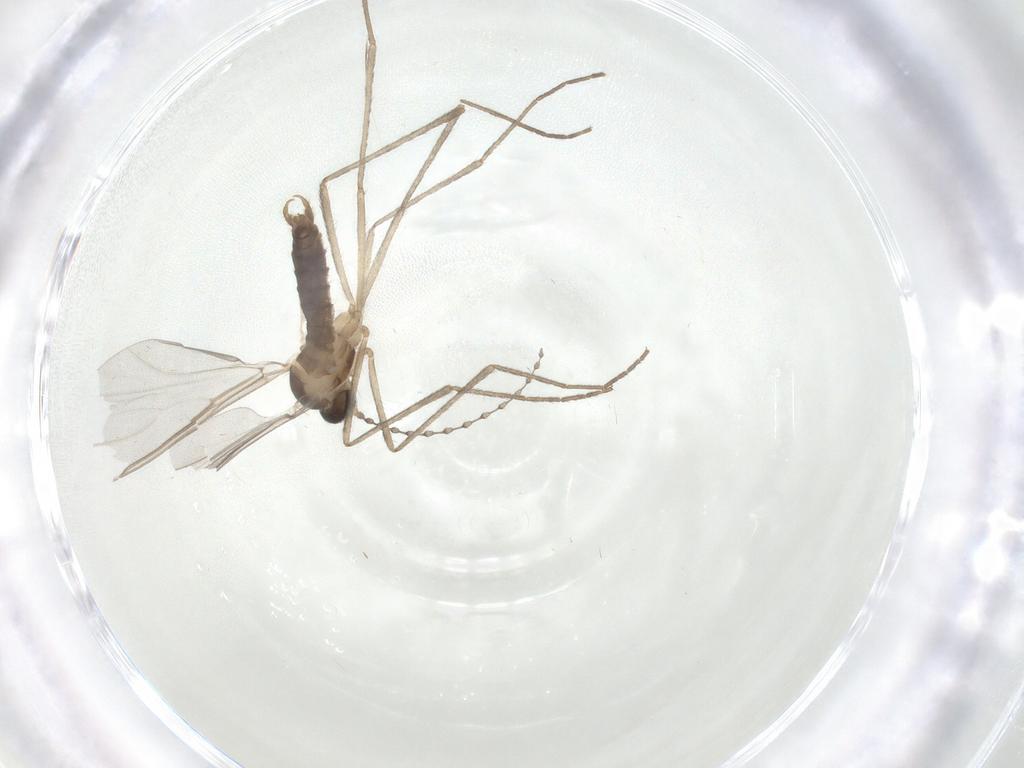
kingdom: Animalia
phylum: Arthropoda
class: Insecta
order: Diptera
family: Cecidomyiidae
